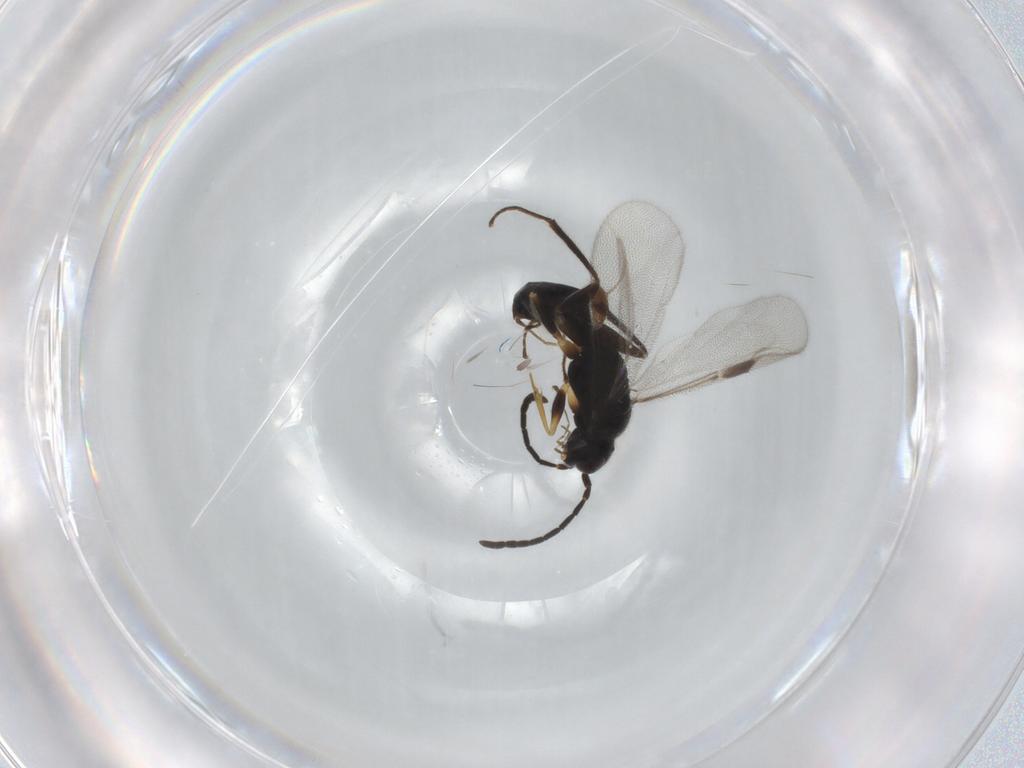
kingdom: Animalia
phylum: Arthropoda
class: Insecta
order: Hymenoptera
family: Dryinidae
